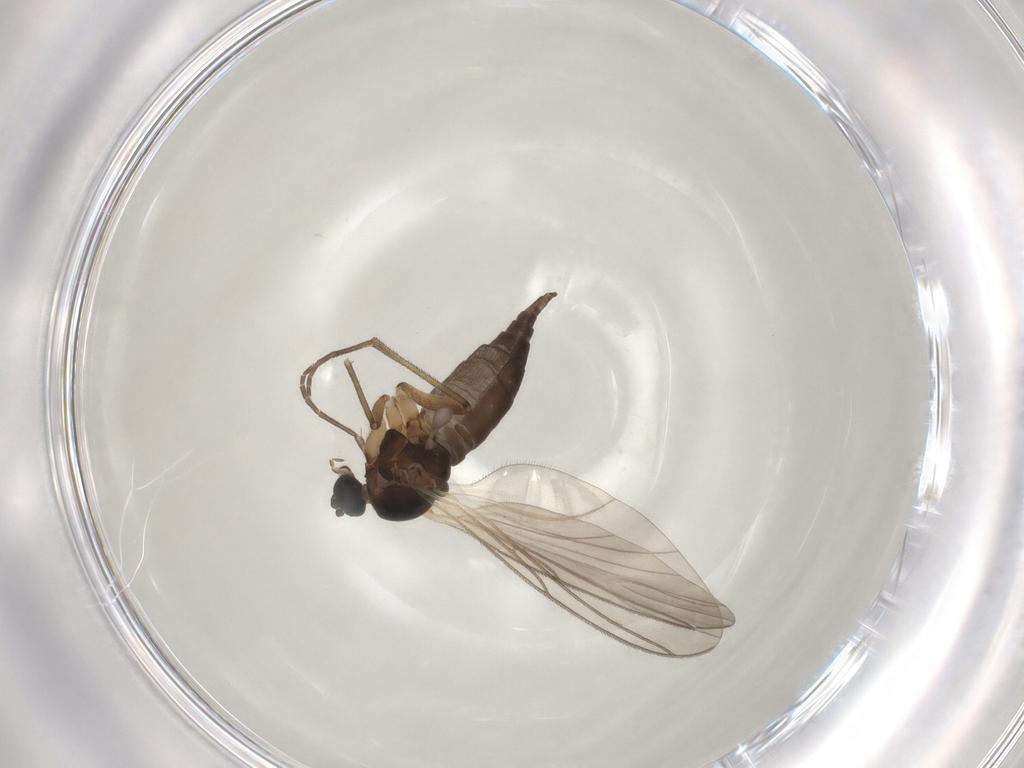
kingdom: Animalia
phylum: Arthropoda
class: Insecta
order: Diptera
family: Sciaridae
